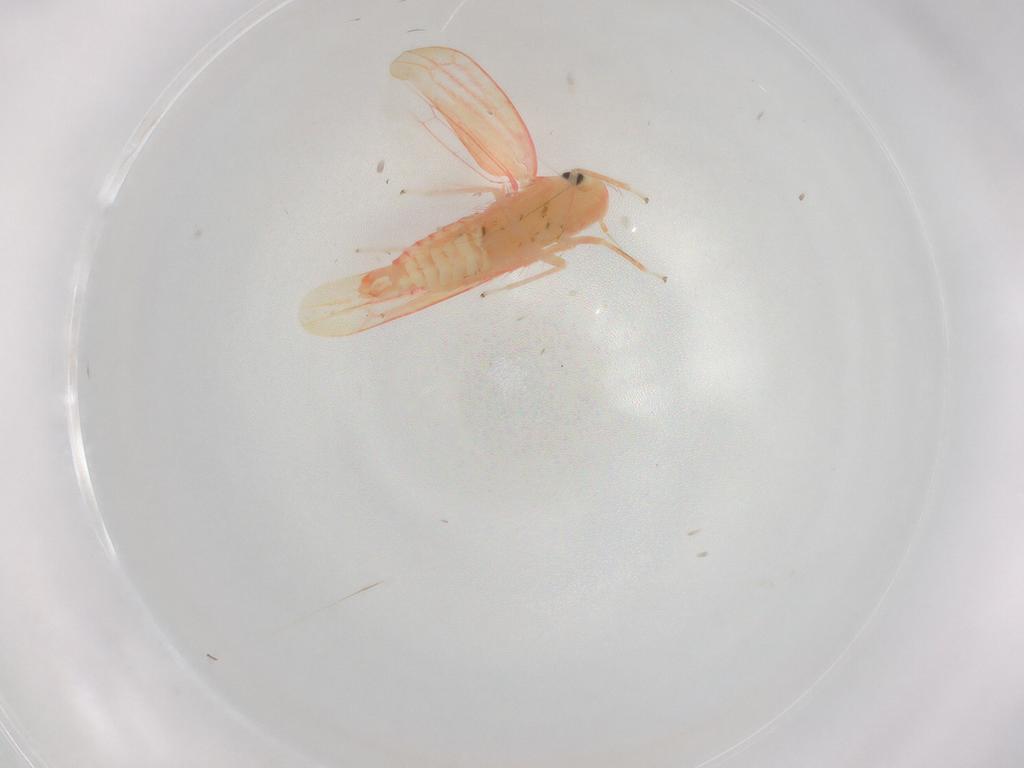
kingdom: Animalia
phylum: Arthropoda
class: Insecta
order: Hemiptera
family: Cicadellidae
